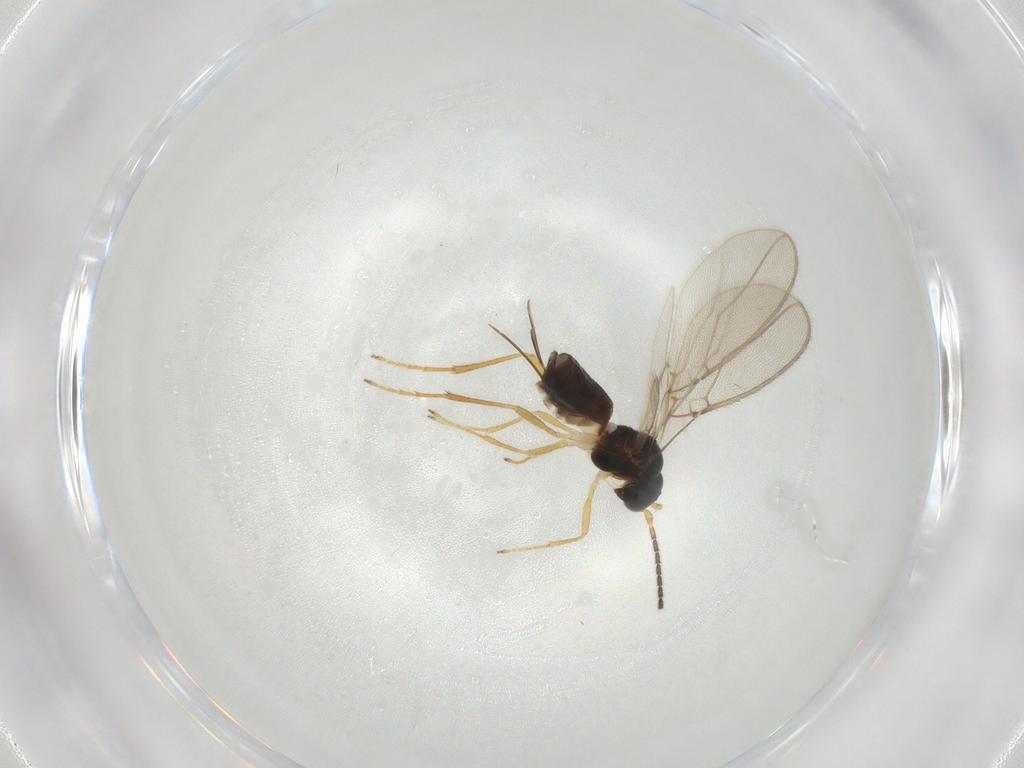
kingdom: Animalia
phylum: Arthropoda
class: Insecta
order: Hymenoptera
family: Braconidae
